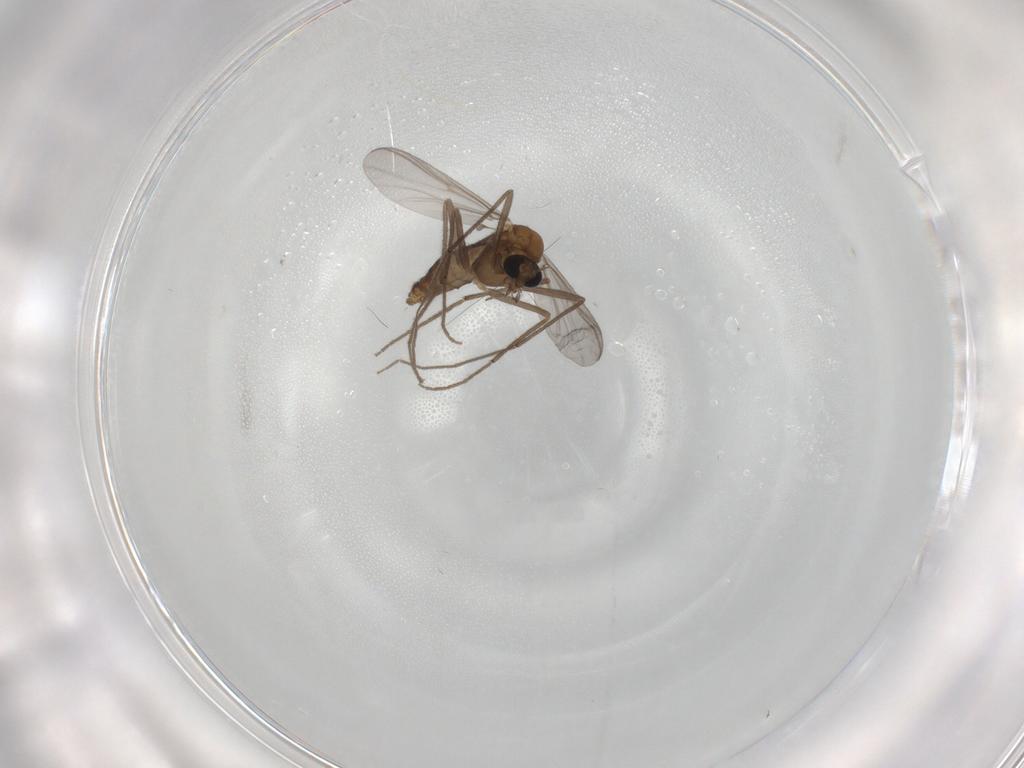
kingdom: Animalia
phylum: Arthropoda
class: Insecta
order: Diptera
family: Chironomidae
